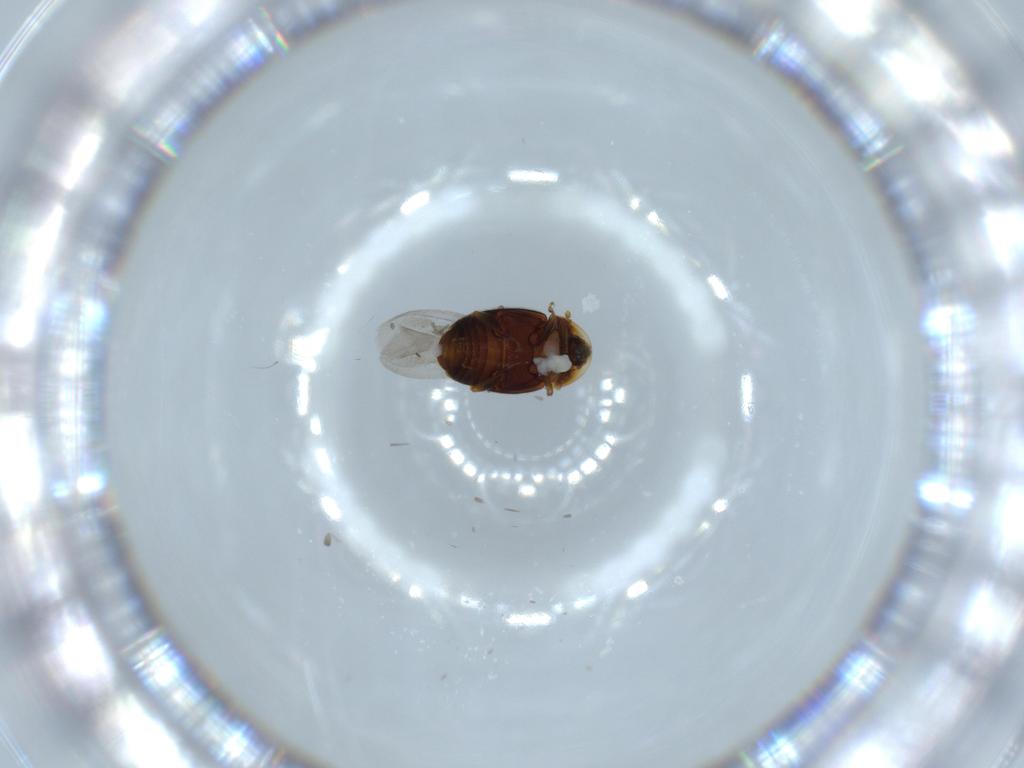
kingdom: Animalia
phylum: Arthropoda
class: Insecta
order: Coleoptera
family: Corylophidae
